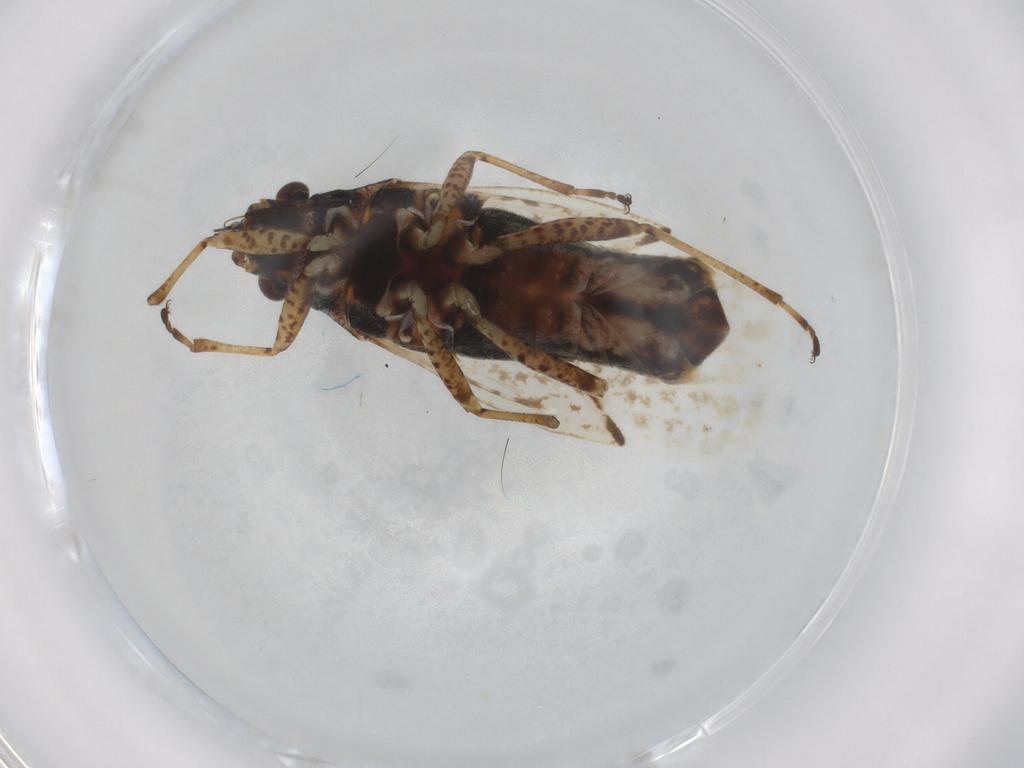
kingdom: Animalia
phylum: Arthropoda
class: Insecta
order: Hemiptera
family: Lygaeidae
